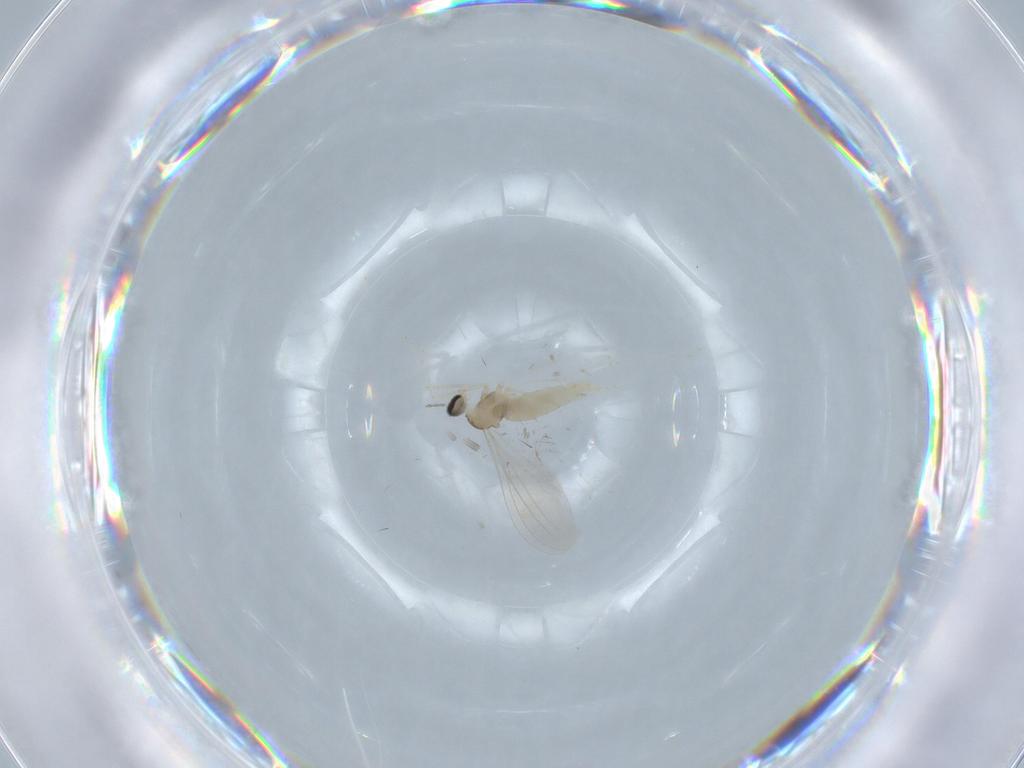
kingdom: Animalia
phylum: Arthropoda
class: Insecta
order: Diptera
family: Cecidomyiidae
